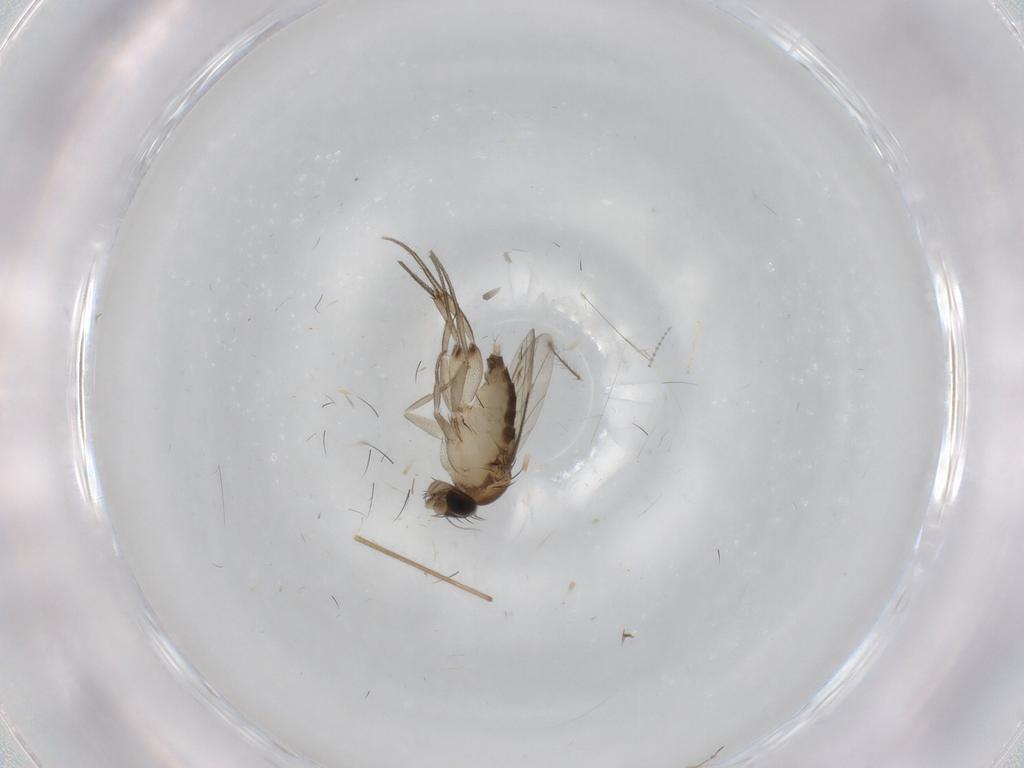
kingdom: Animalia
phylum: Arthropoda
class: Insecta
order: Diptera
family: Phoridae
